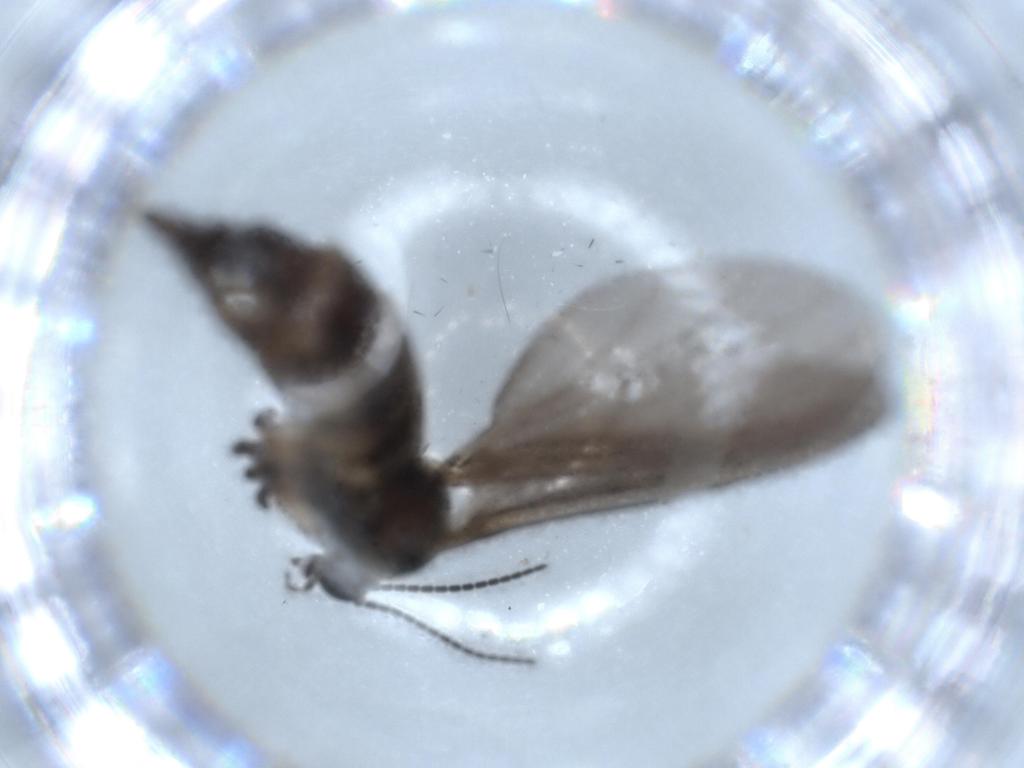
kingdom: Animalia
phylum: Arthropoda
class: Insecta
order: Diptera
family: Sciaridae
